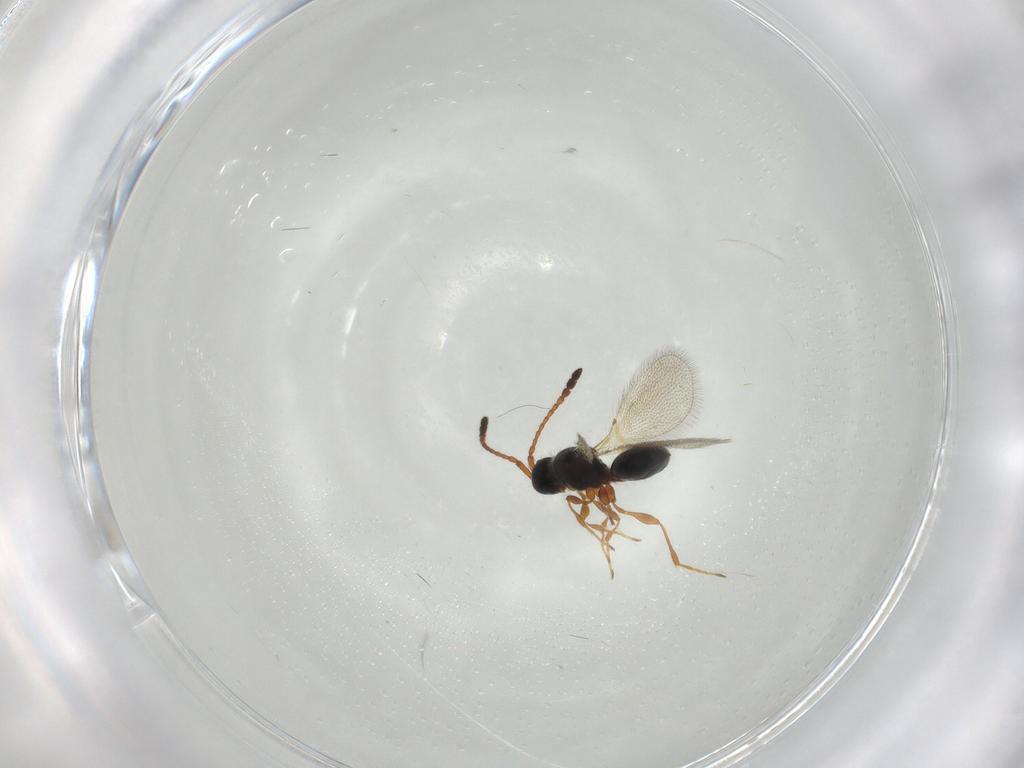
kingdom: Animalia
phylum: Arthropoda
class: Insecta
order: Hymenoptera
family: Diapriidae
